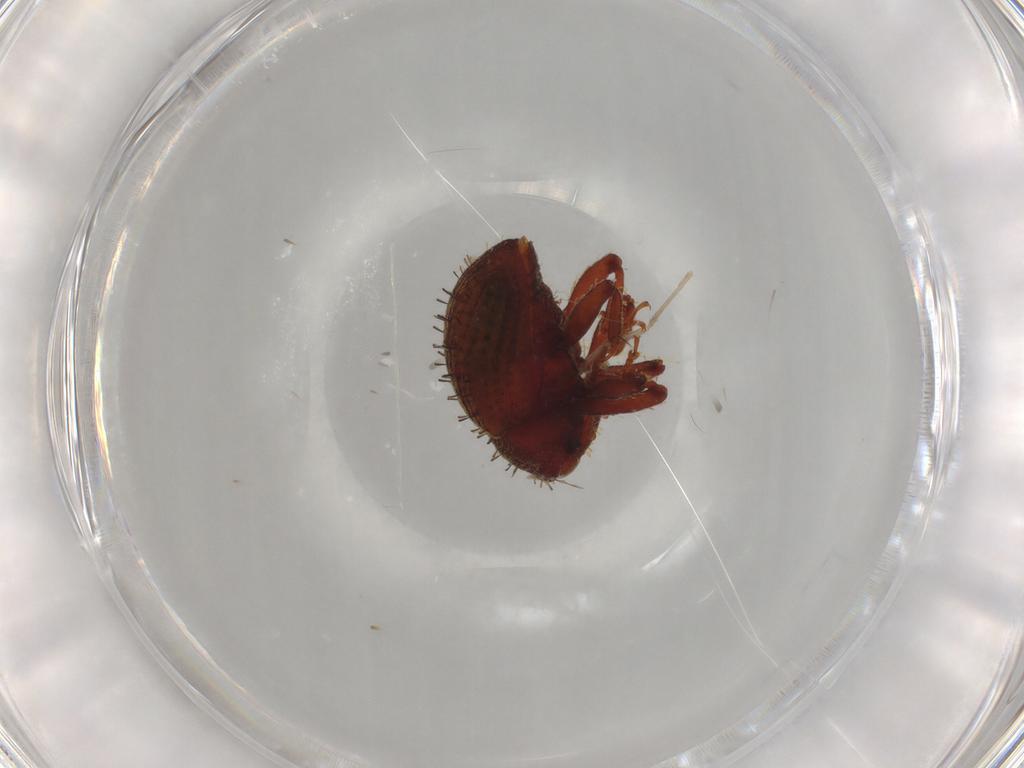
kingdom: Animalia
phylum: Arthropoda
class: Insecta
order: Coleoptera
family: Curculionidae
